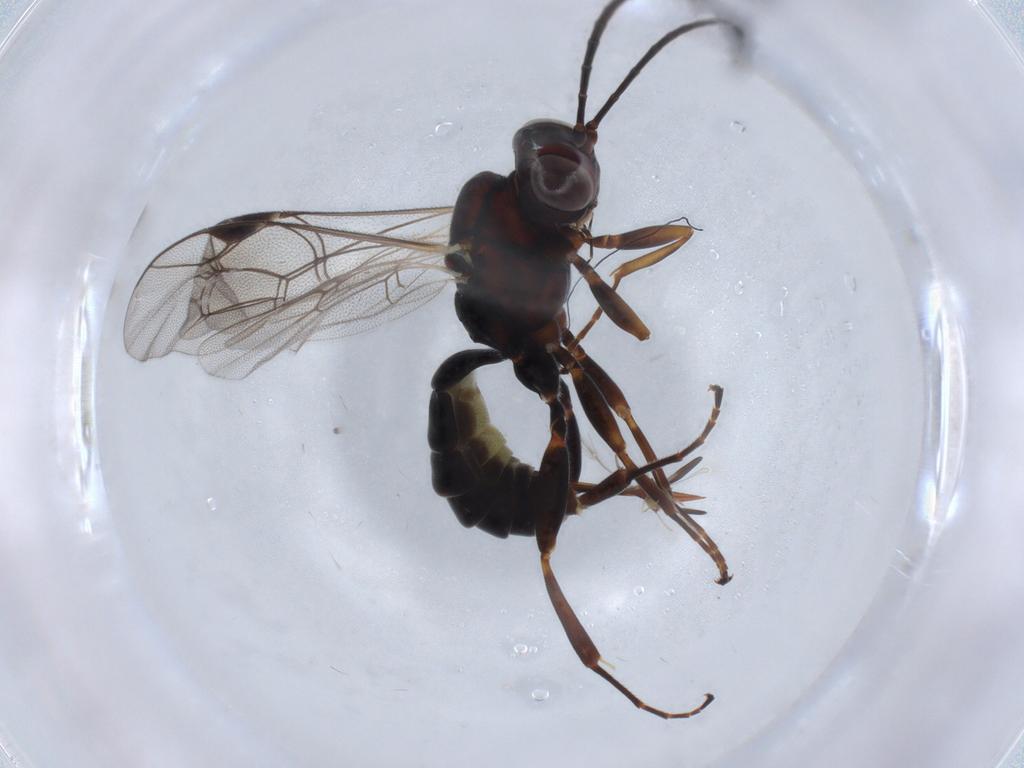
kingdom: Animalia
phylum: Arthropoda
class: Insecta
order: Hymenoptera
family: Ichneumonidae
